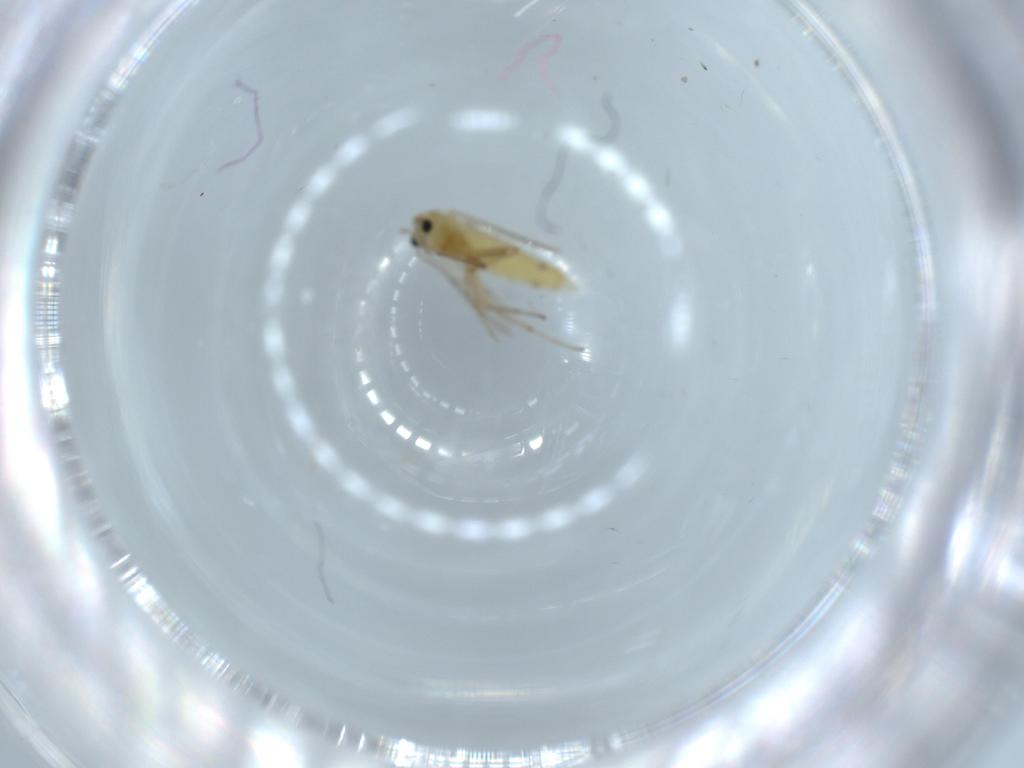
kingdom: Animalia
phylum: Arthropoda
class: Insecta
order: Diptera
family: Chironomidae
